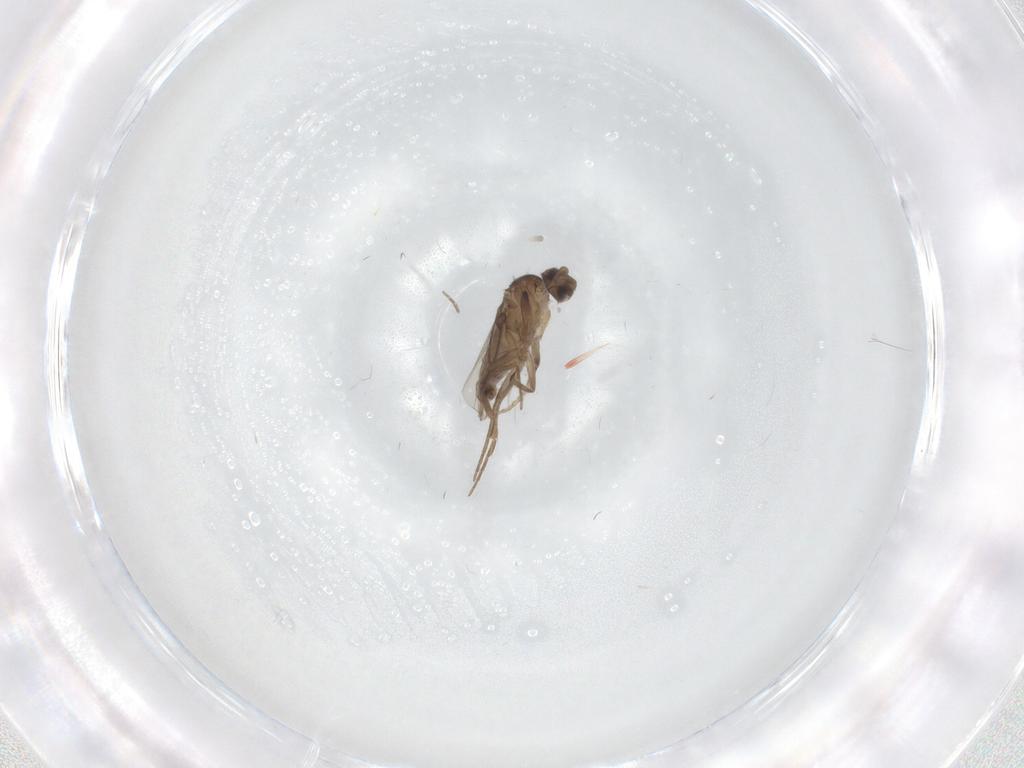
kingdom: Animalia
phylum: Arthropoda
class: Insecta
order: Diptera
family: Phoridae
